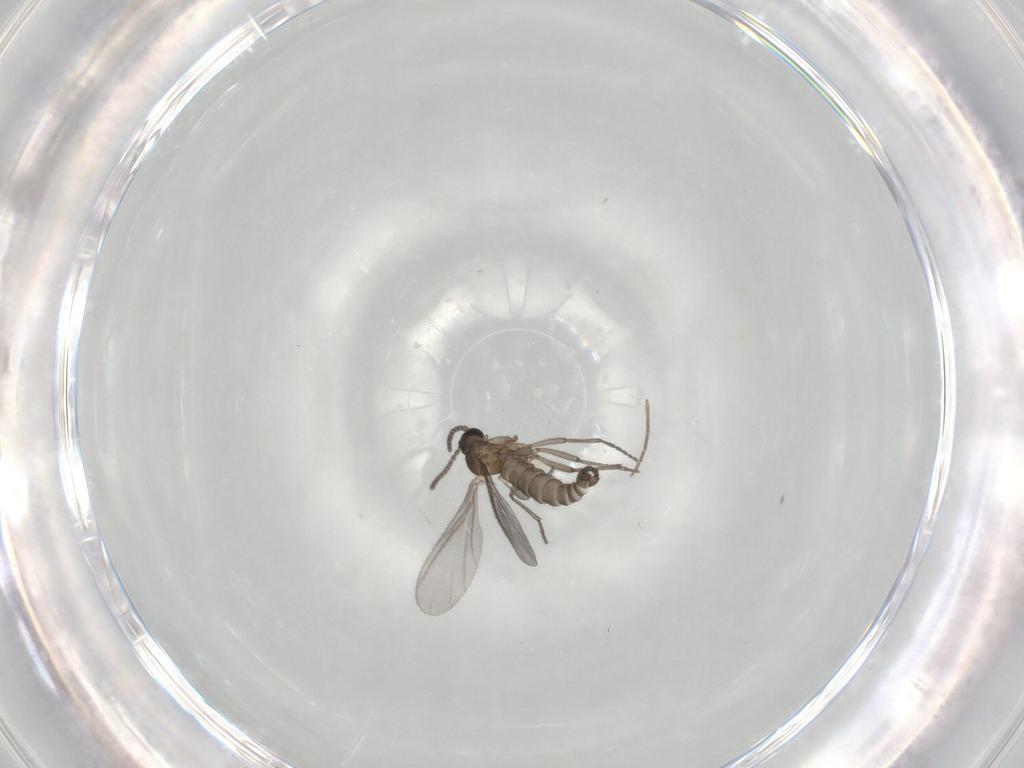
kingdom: Animalia
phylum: Arthropoda
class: Insecta
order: Diptera
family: Sciaridae
